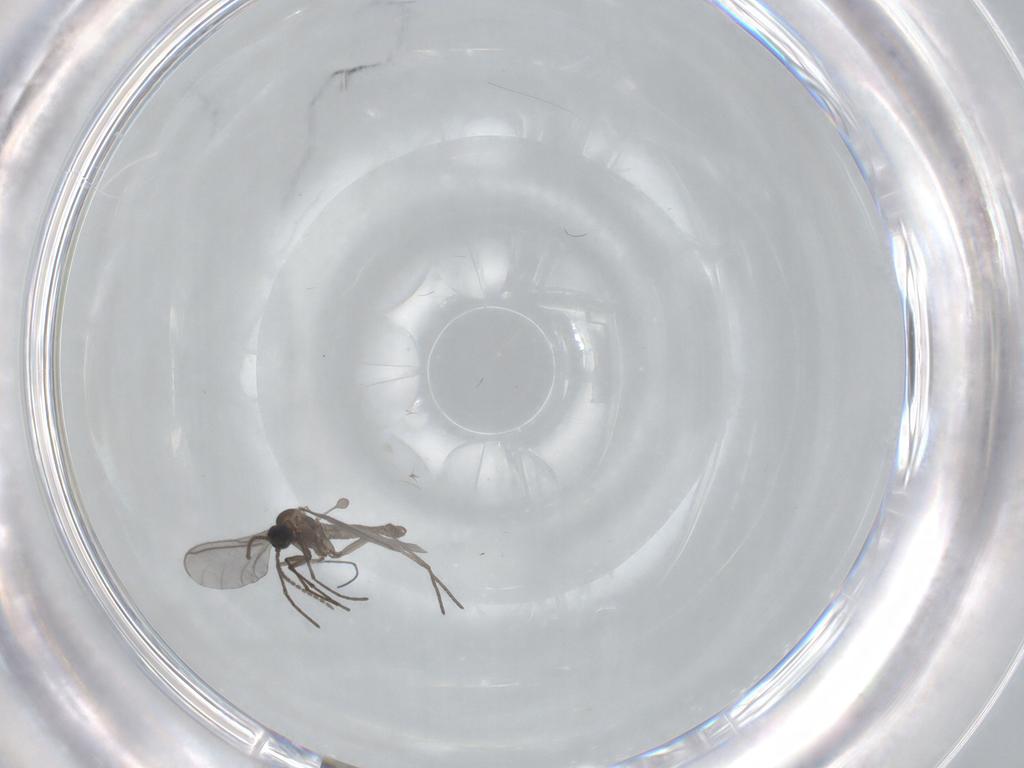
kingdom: Animalia
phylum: Arthropoda
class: Insecta
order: Diptera
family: Sciaridae
